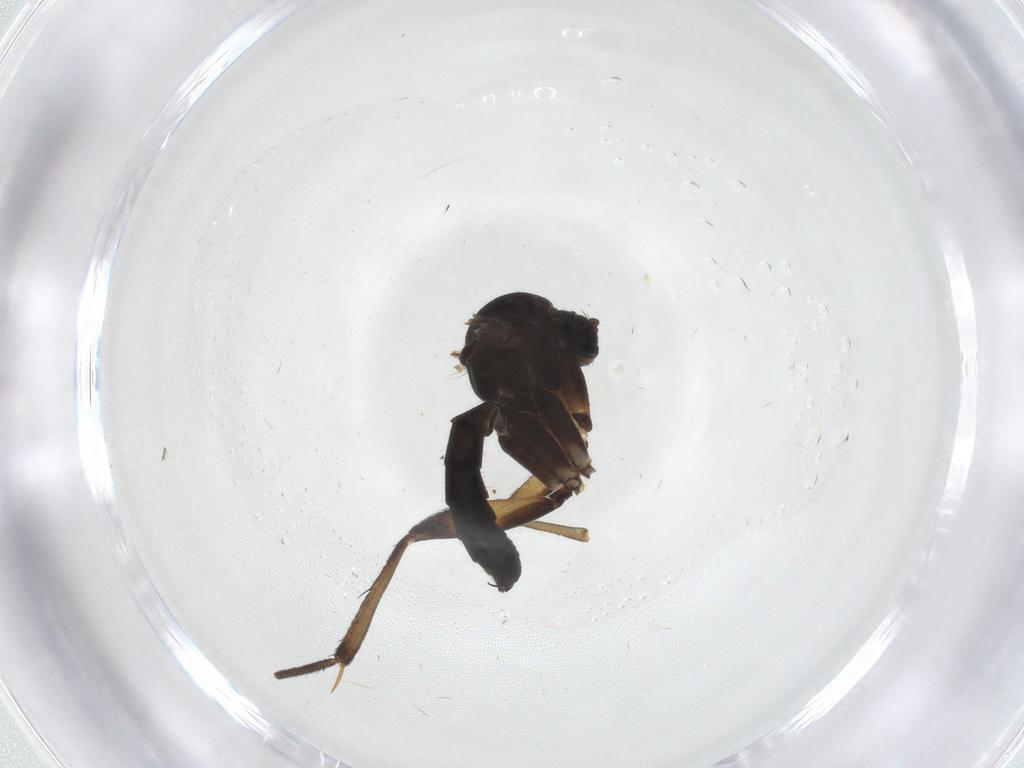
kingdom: Animalia
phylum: Arthropoda
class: Insecta
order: Diptera
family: Mycetophilidae
